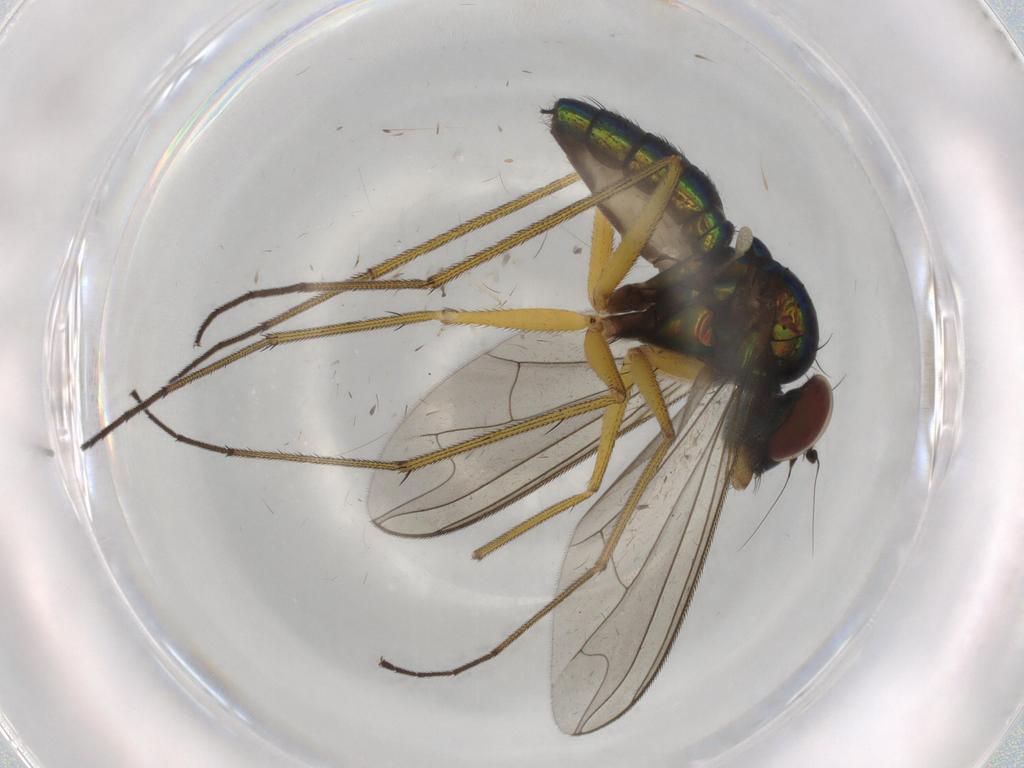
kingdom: Animalia
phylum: Arthropoda
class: Insecta
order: Diptera
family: Dolichopodidae
